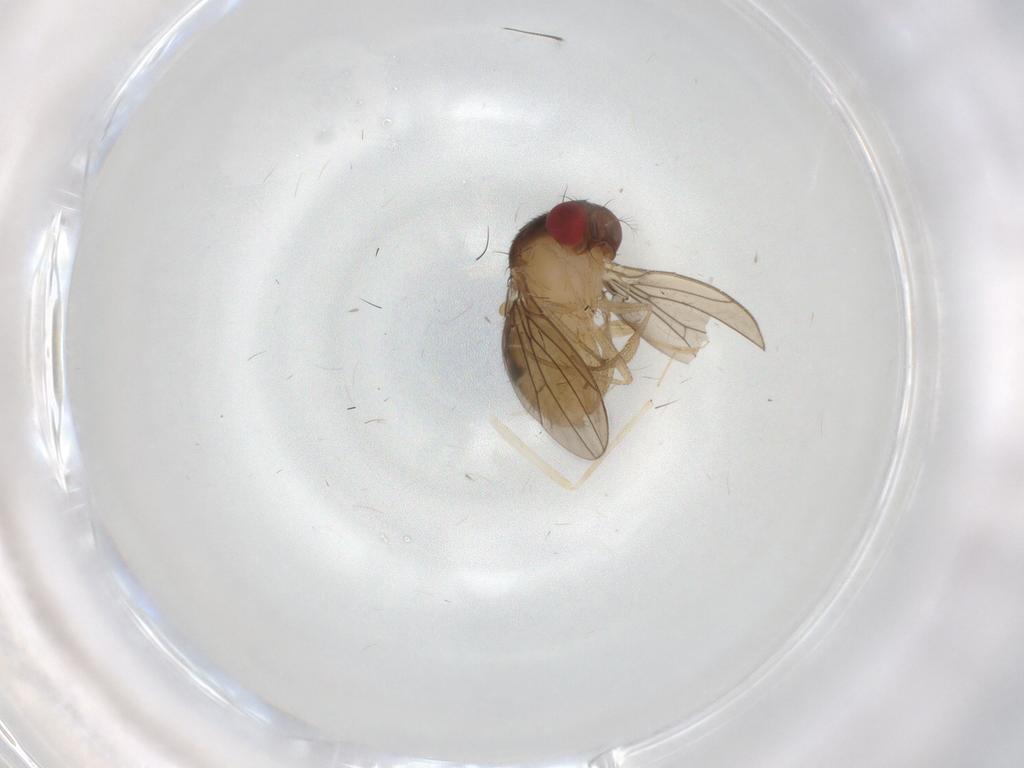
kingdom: Animalia
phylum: Arthropoda
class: Insecta
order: Diptera
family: Drosophilidae
